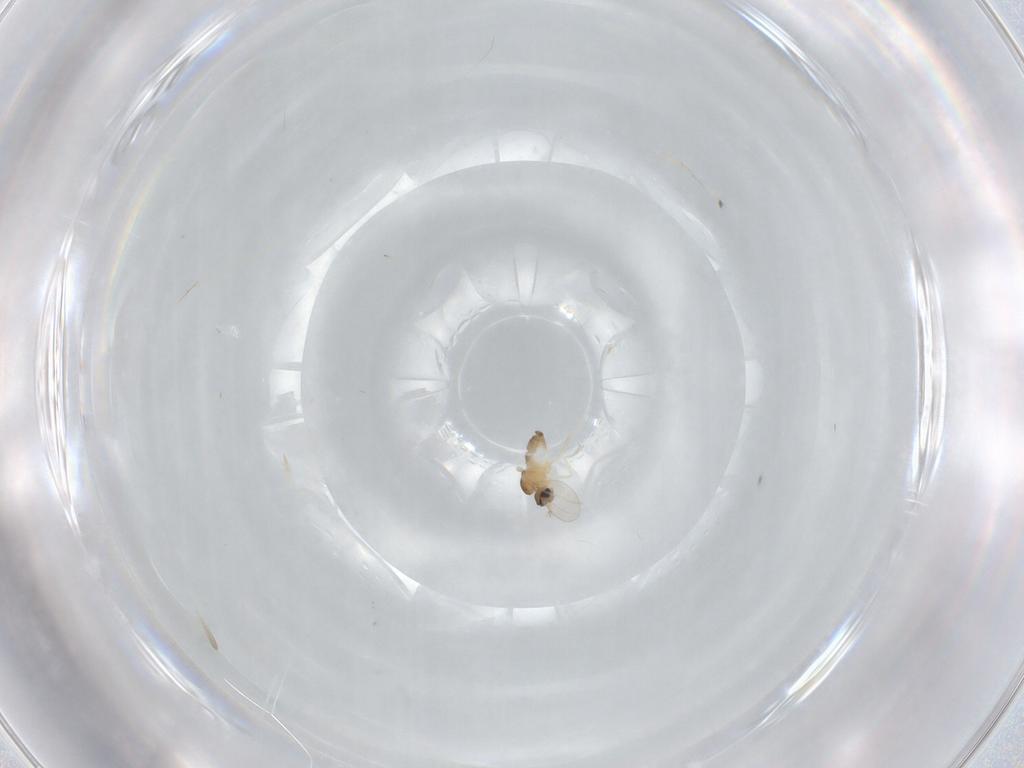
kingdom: Animalia
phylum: Arthropoda
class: Insecta
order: Diptera
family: Cecidomyiidae
